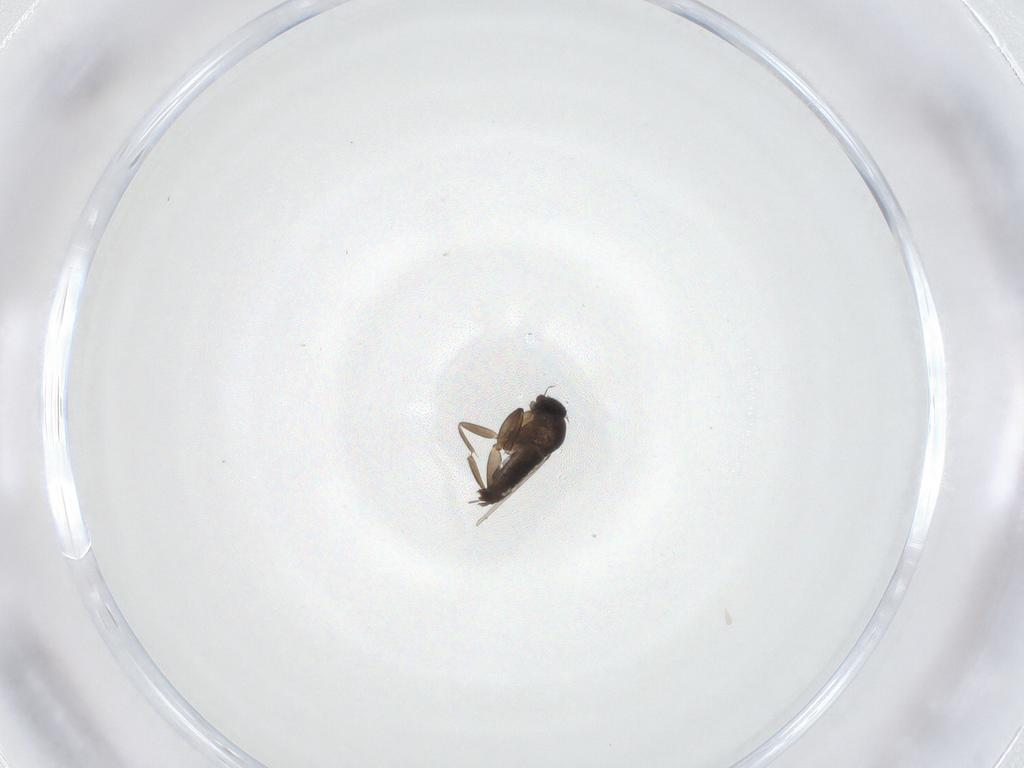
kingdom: Animalia
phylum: Arthropoda
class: Insecta
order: Diptera
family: Phoridae
